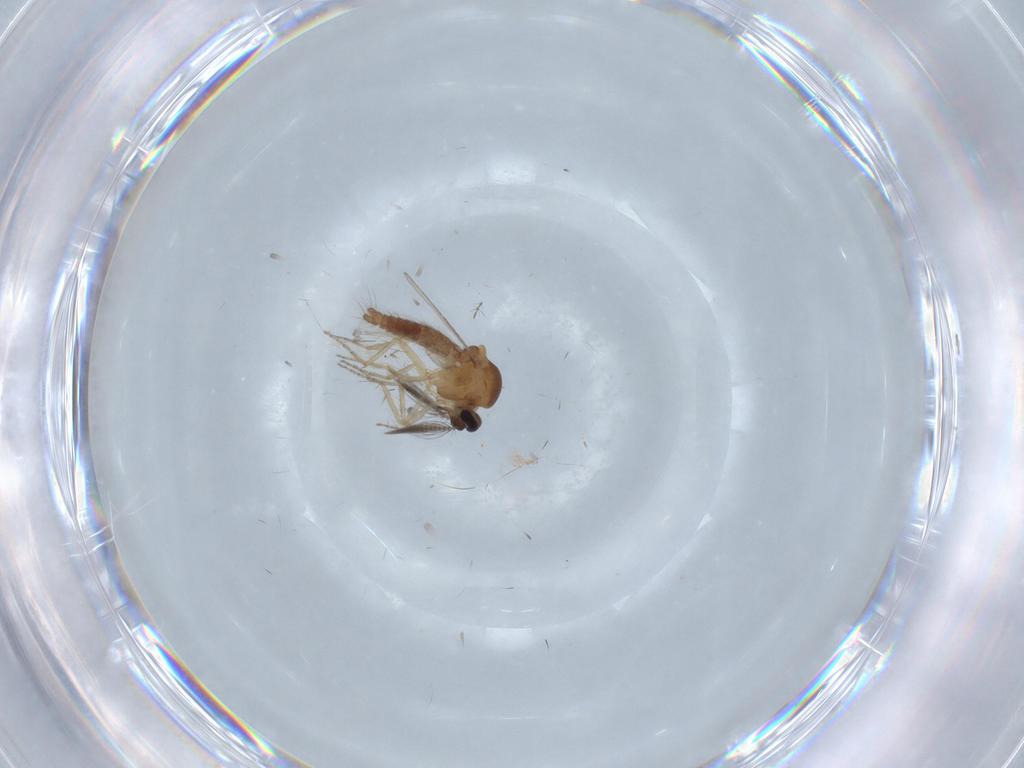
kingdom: Animalia
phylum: Arthropoda
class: Insecta
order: Diptera
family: Ceratopogonidae
